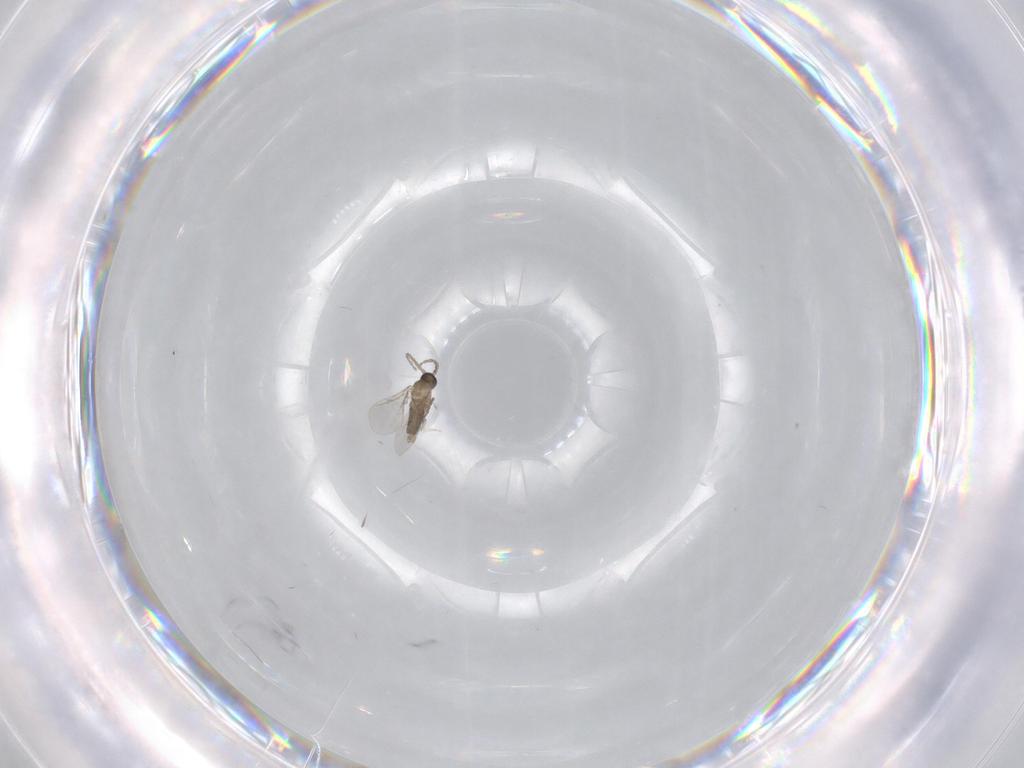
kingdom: Animalia
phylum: Arthropoda
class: Insecta
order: Diptera
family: Cecidomyiidae
